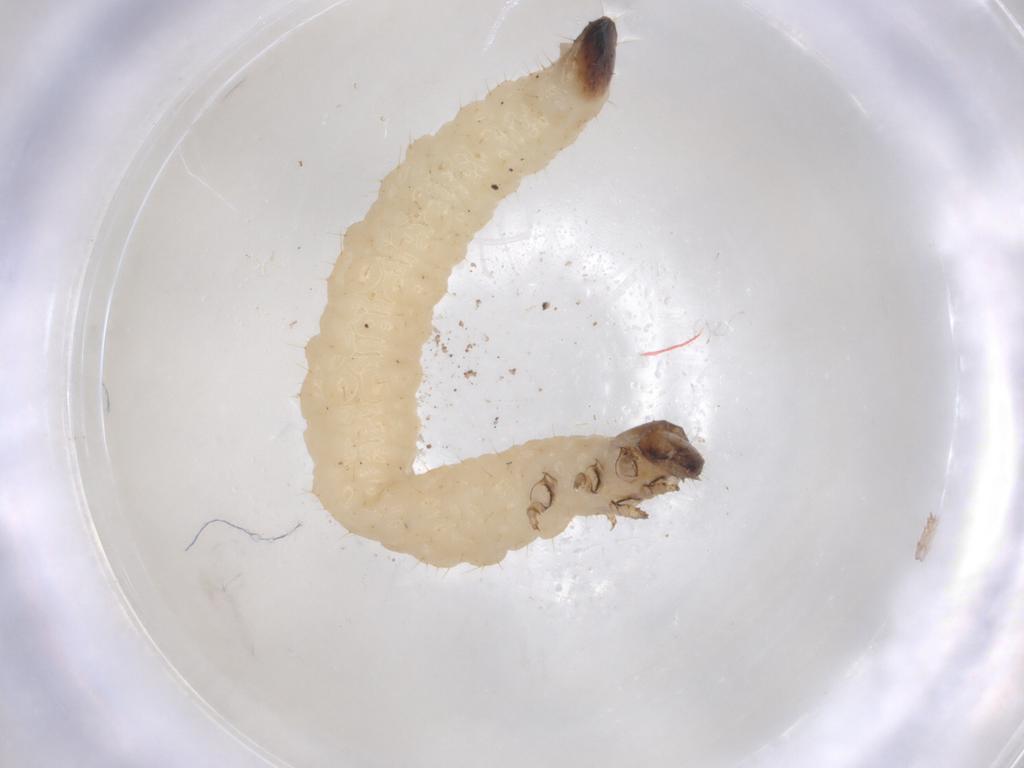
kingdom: Animalia
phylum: Arthropoda
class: Insecta
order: Coleoptera
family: Chrysomelidae
